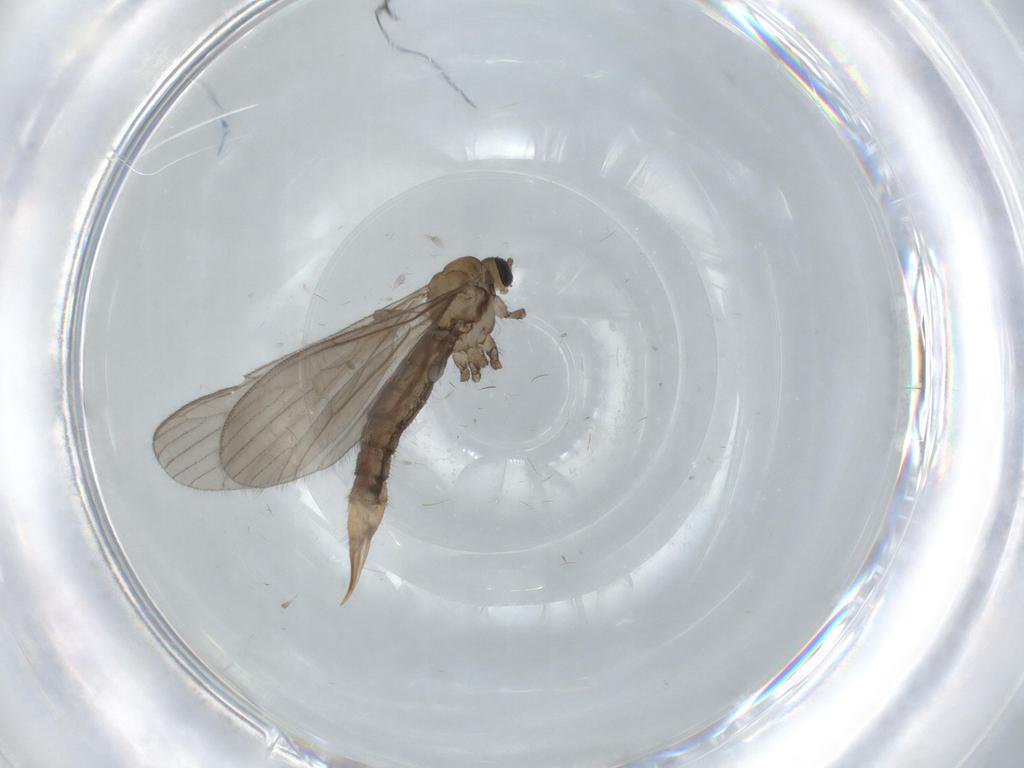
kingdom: Animalia
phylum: Arthropoda
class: Insecta
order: Diptera
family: Limoniidae
